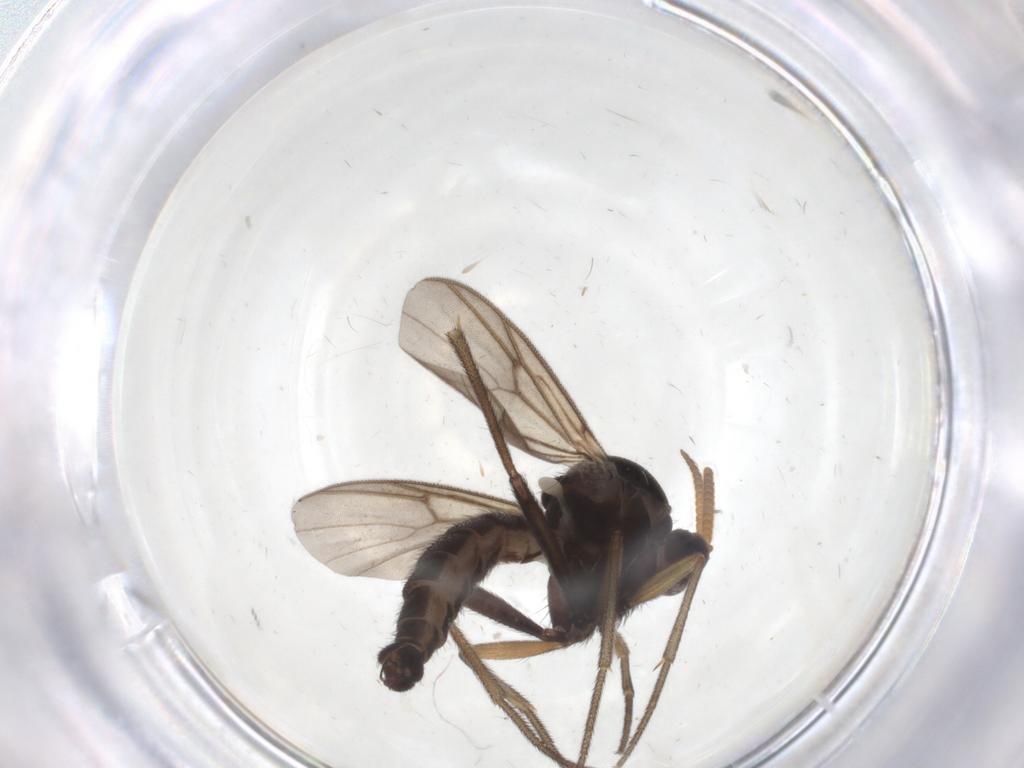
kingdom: Animalia
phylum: Arthropoda
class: Insecta
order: Diptera
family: Mycetophilidae
